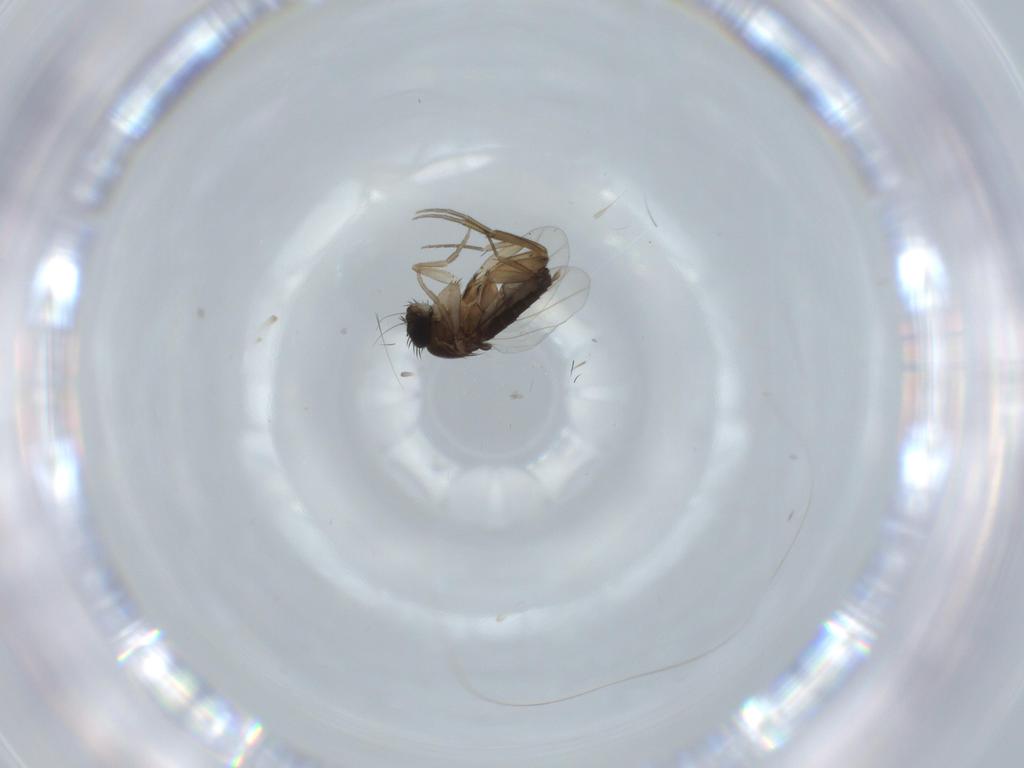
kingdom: Animalia
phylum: Arthropoda
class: Insecta
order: Diptera
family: Phoridae
